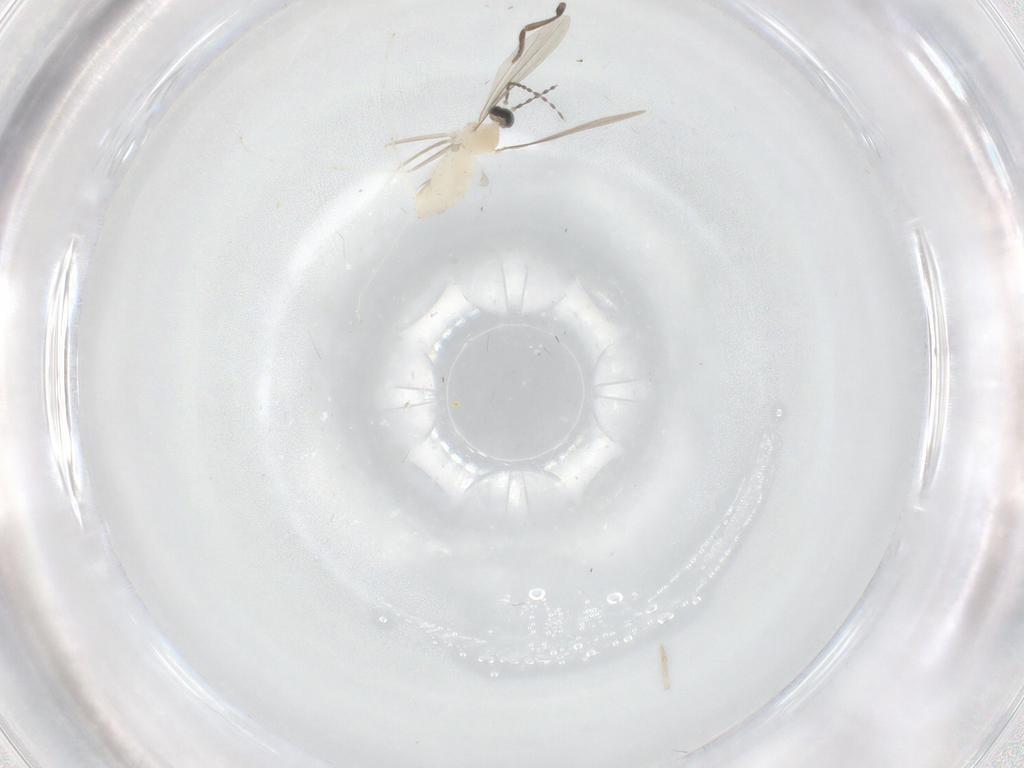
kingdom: Animalia
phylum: Arthropoda
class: Insecta
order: Diptera
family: Cecidomyiidae
